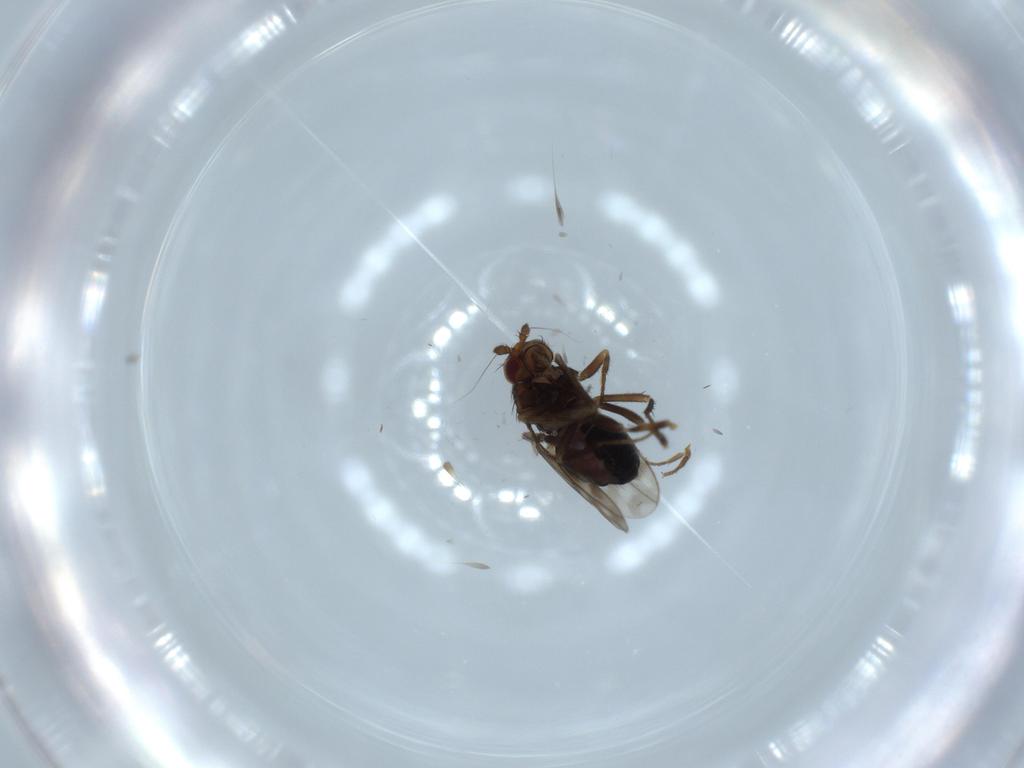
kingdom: Animalia
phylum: Arthropoda
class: Insecta
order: Diptera
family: Sphaeroceridae
